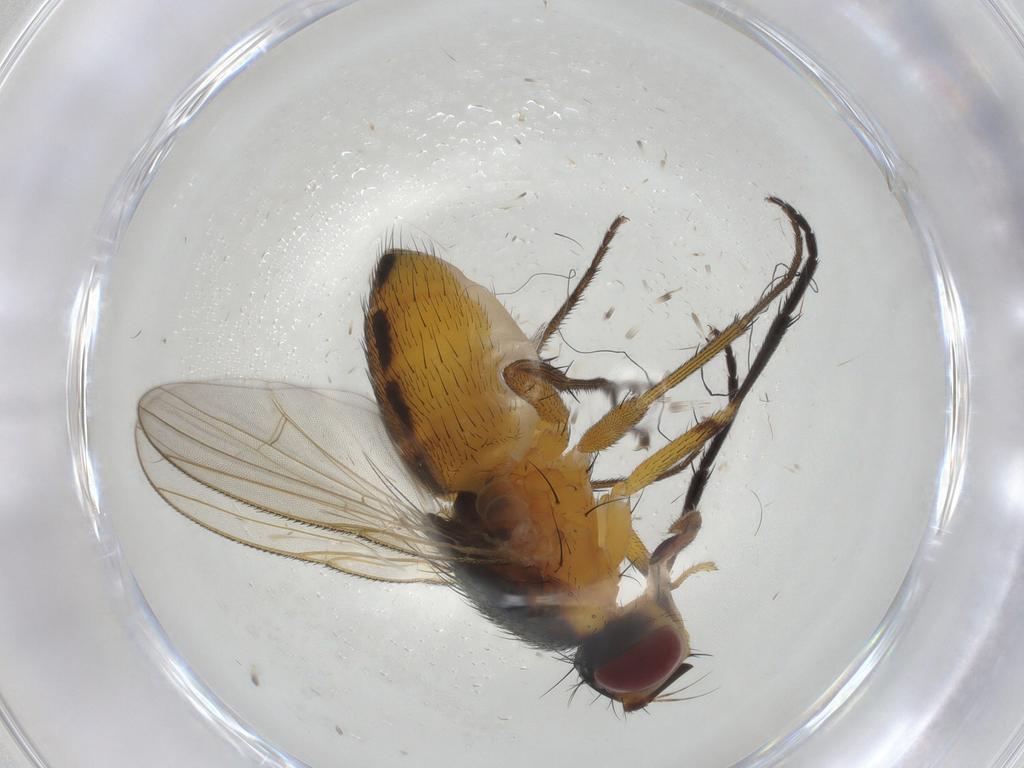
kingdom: Animalia
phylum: Arthropoda
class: Insecta
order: Diptera
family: Muscidae
